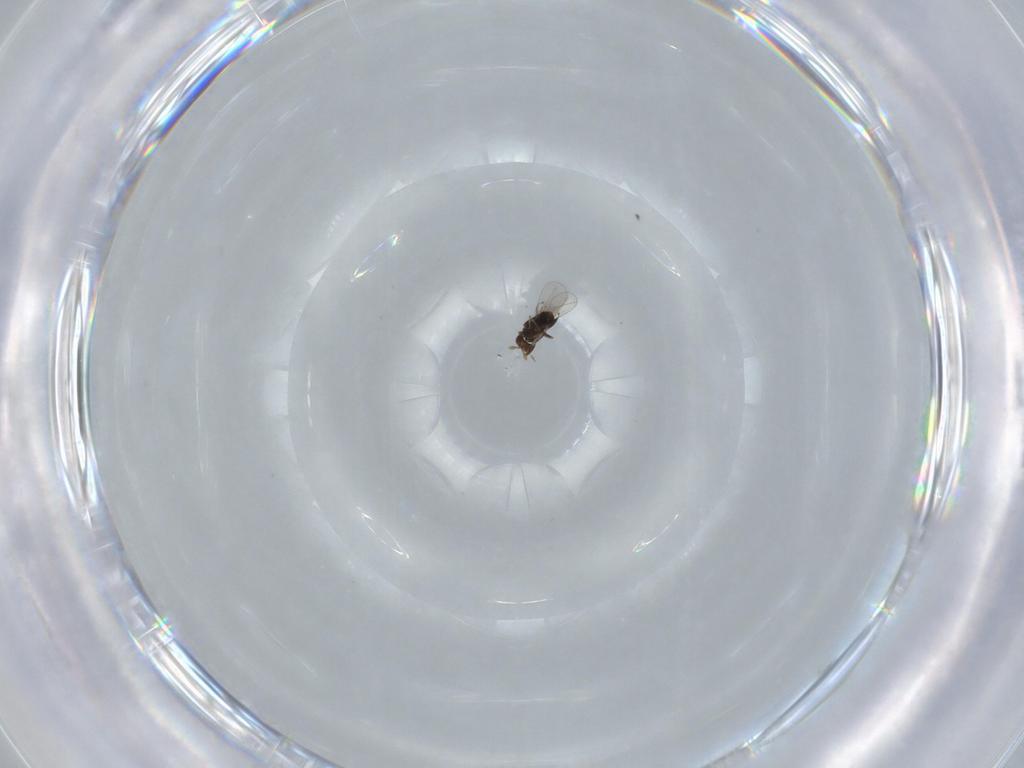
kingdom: Animalia
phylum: Arthropoda
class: Insecta
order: Hymenoptera
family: Trichogrammatidae
